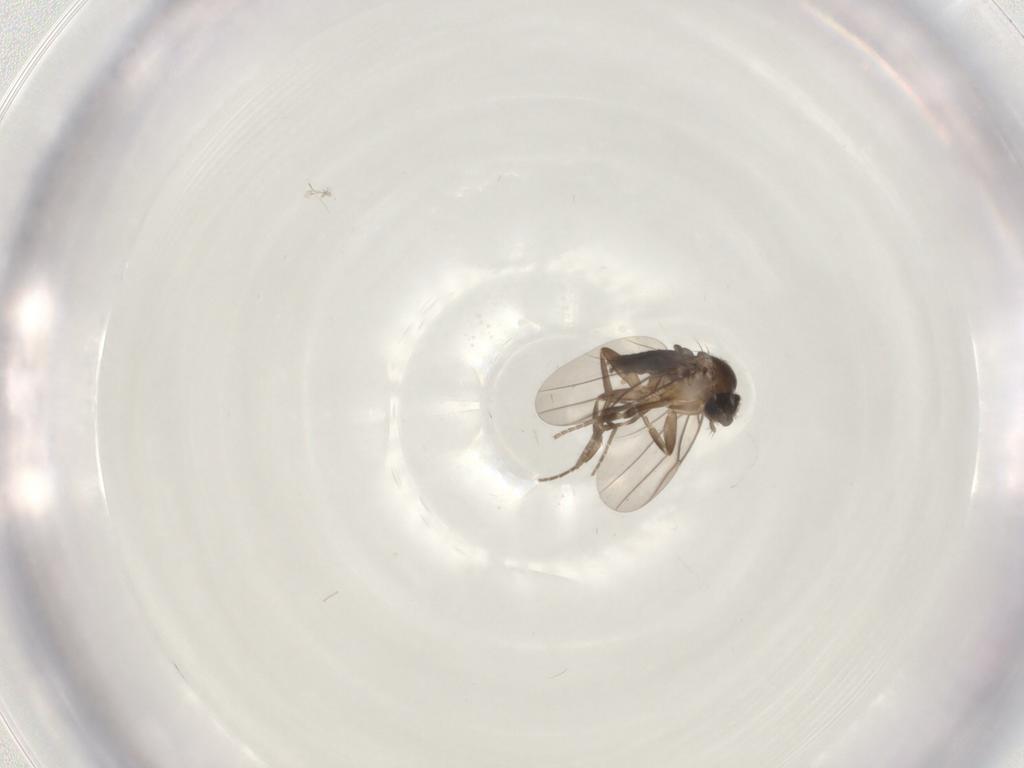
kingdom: Animalia
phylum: Arthropoda
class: Insecta
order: Diptera
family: Phoridae
